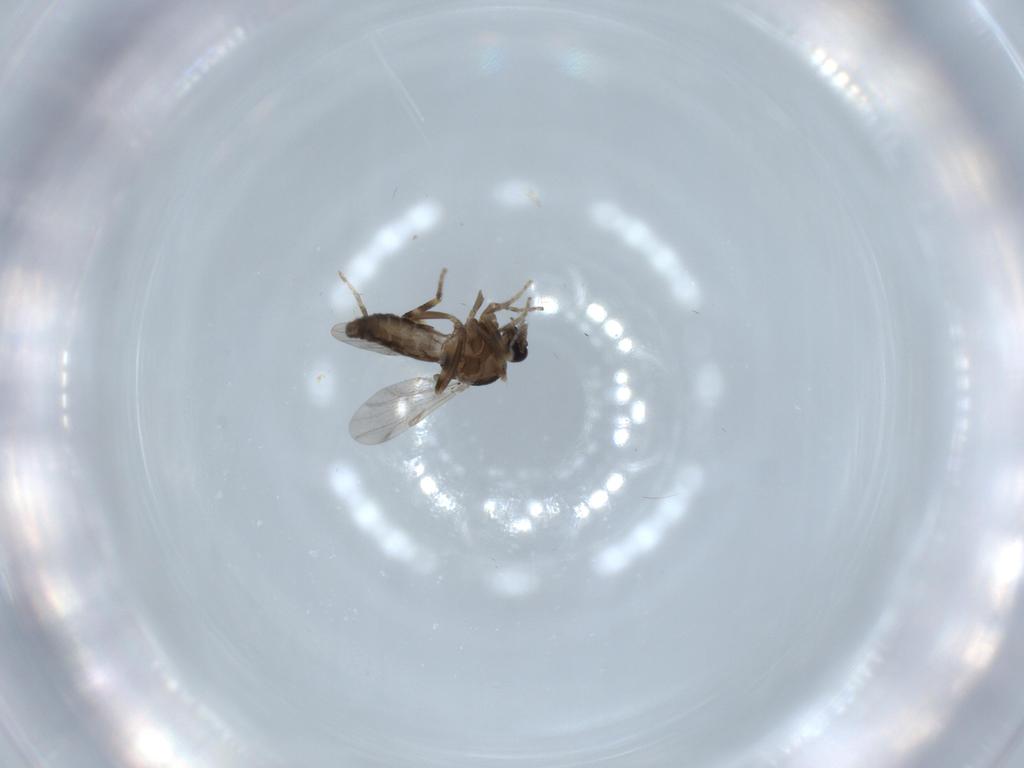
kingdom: Animalia
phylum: Arthropoda
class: Insecta
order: Diptera
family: Ceratopogonidae
